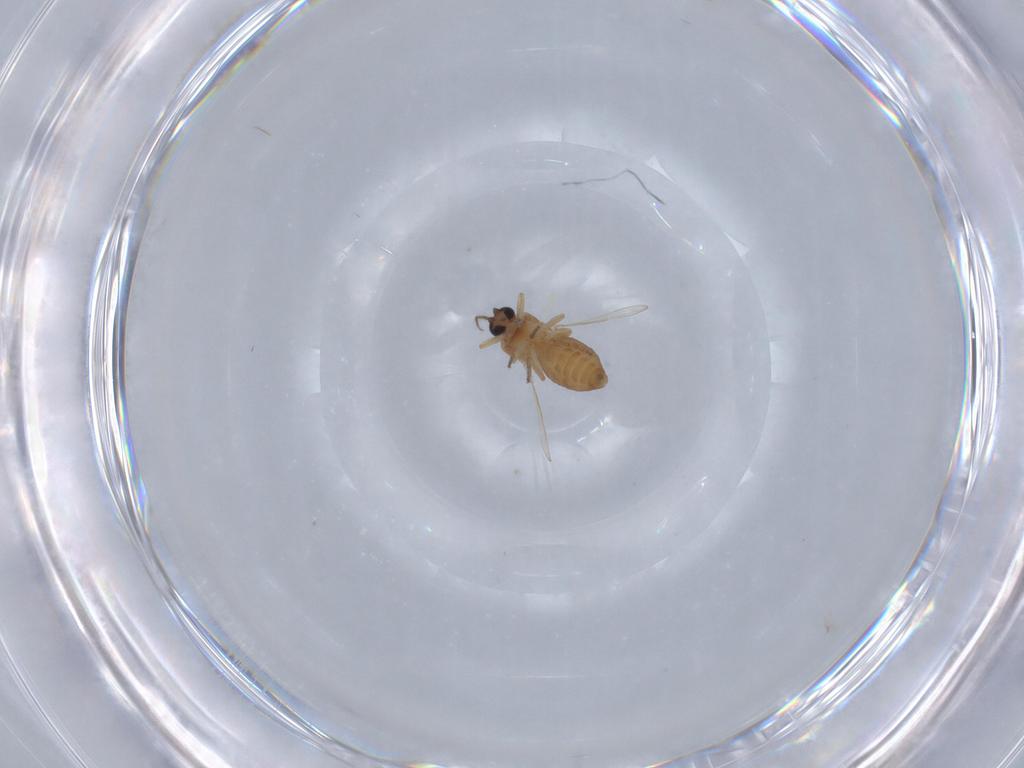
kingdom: Animalia
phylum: Arthropoda
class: Insecta
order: Diptera
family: Ceratopogonidae
